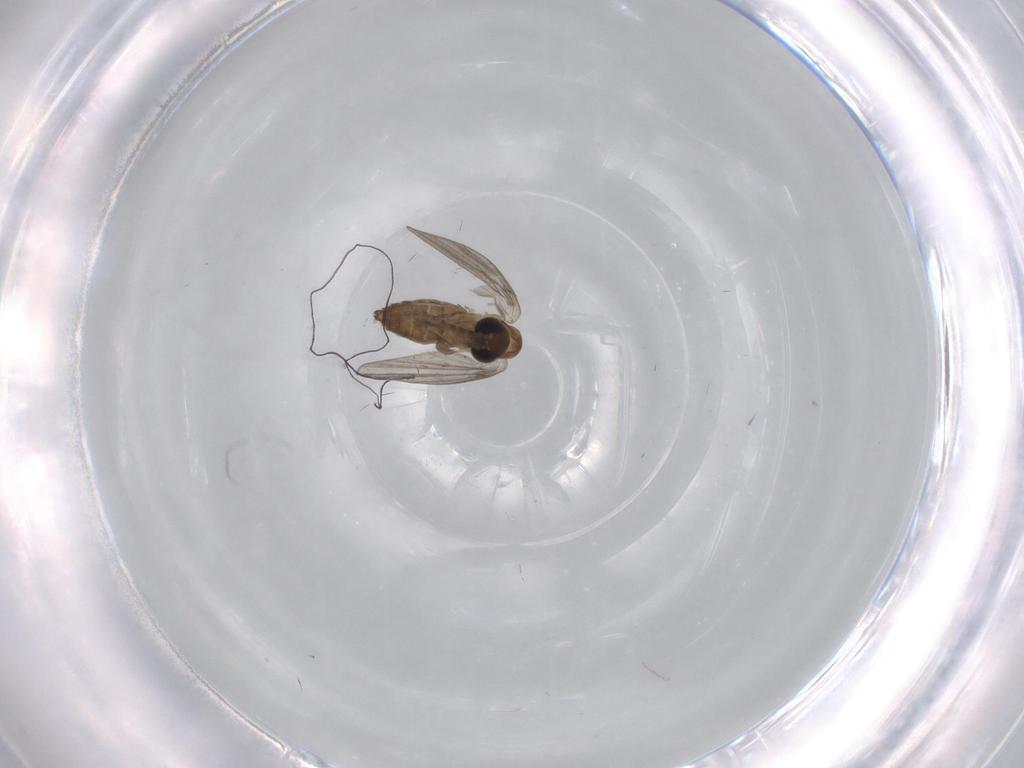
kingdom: Animalia
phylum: Arthropoda
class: Insecta
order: Diptera
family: Phoridae
